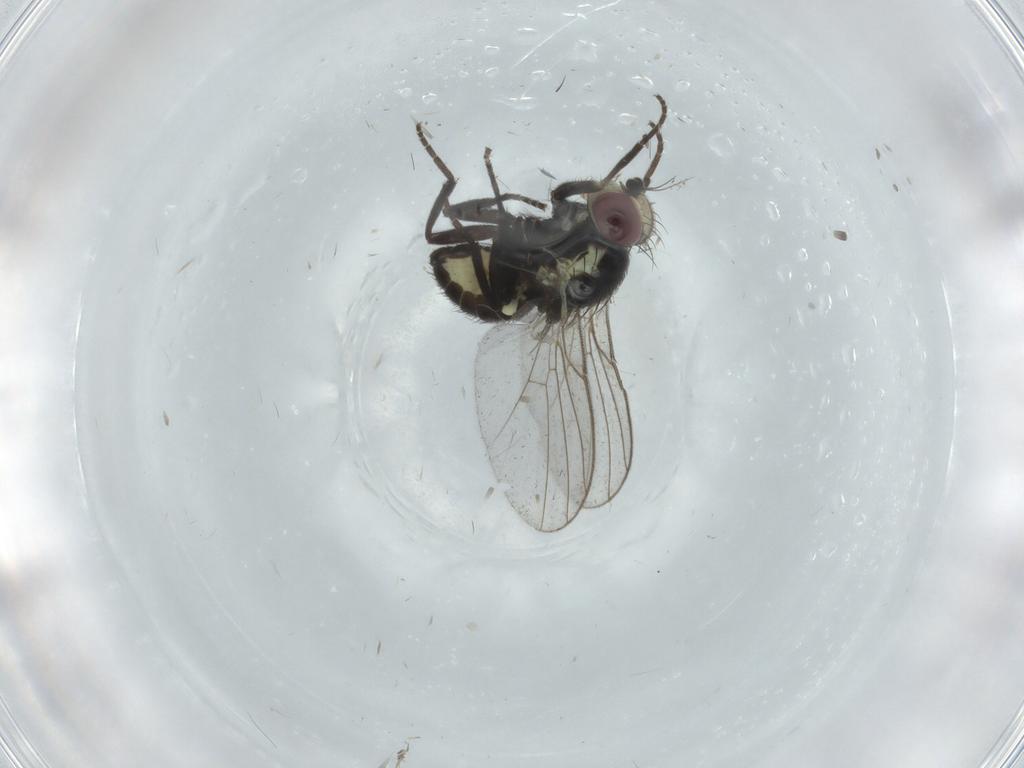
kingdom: Animalia
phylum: Arthropoda
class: Insecta
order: Diptera
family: Agromyzidae
